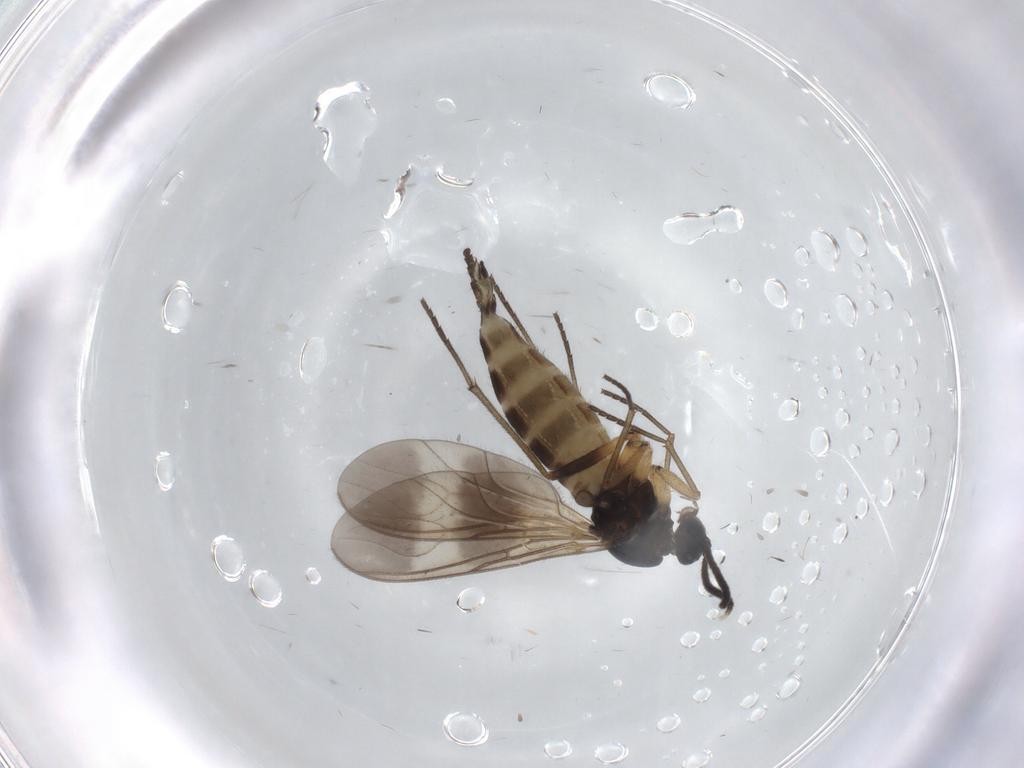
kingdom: Animalia
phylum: Arthropoda
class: Insecta
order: Diptera
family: Sciaridae
